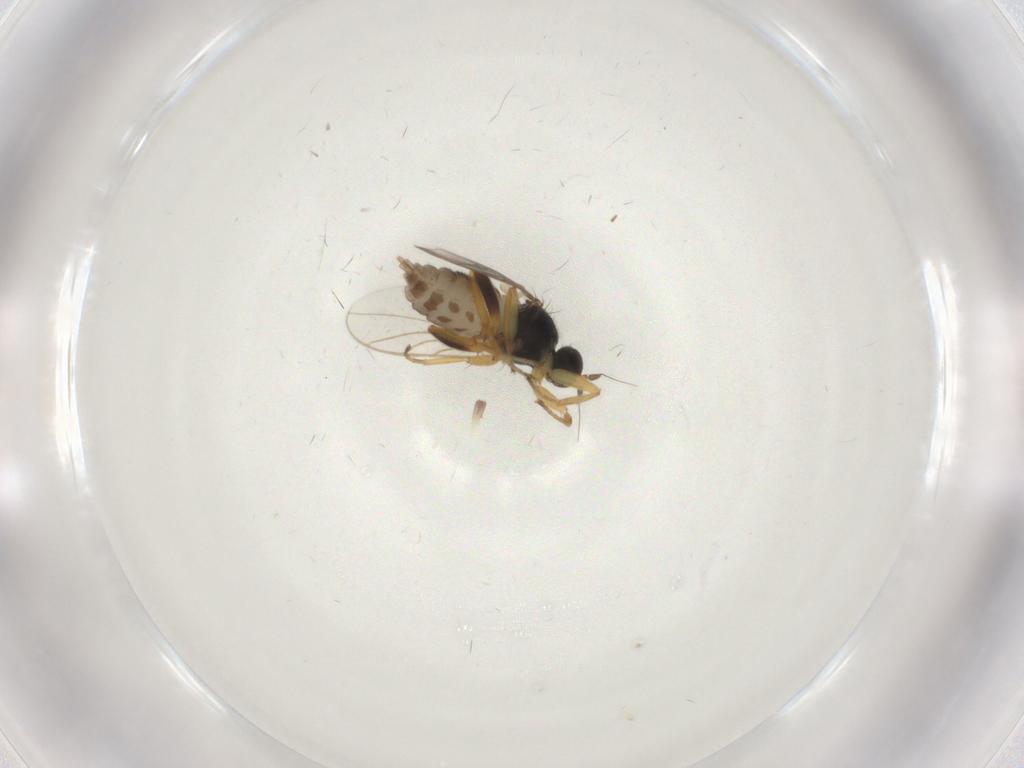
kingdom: Animalia
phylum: Arthropoda
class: Insecta
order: Diptera
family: Hybotidae
